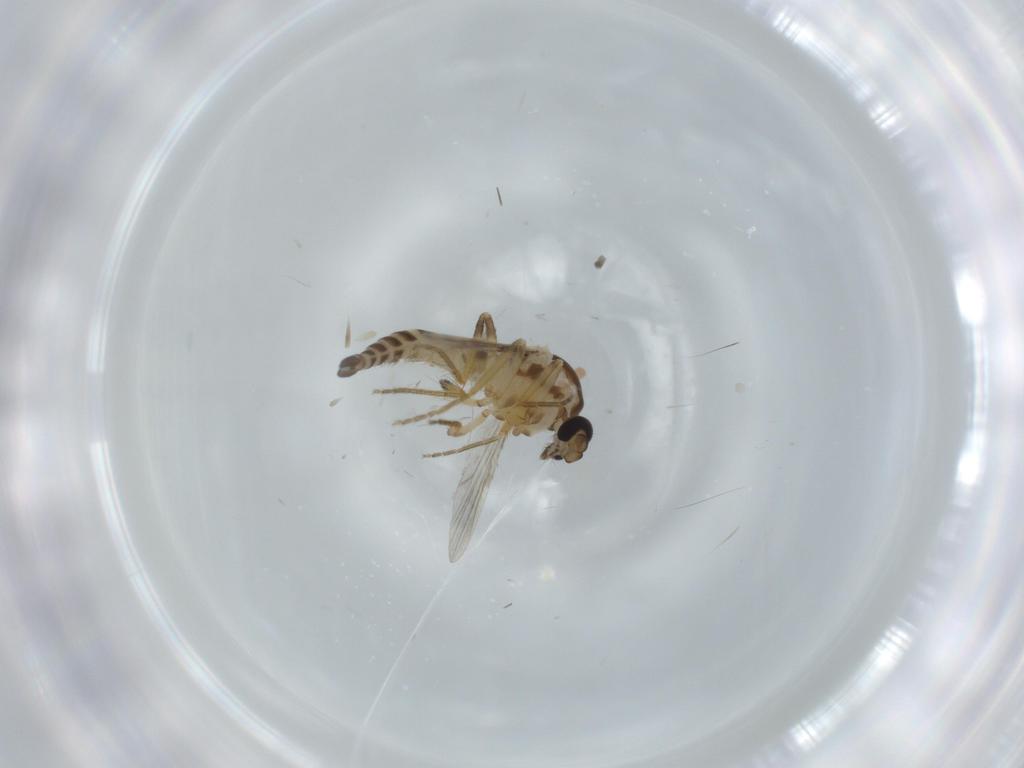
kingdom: Animalia
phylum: Arthropoda
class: Insecta
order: Diptera
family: Ceratopogonidae
